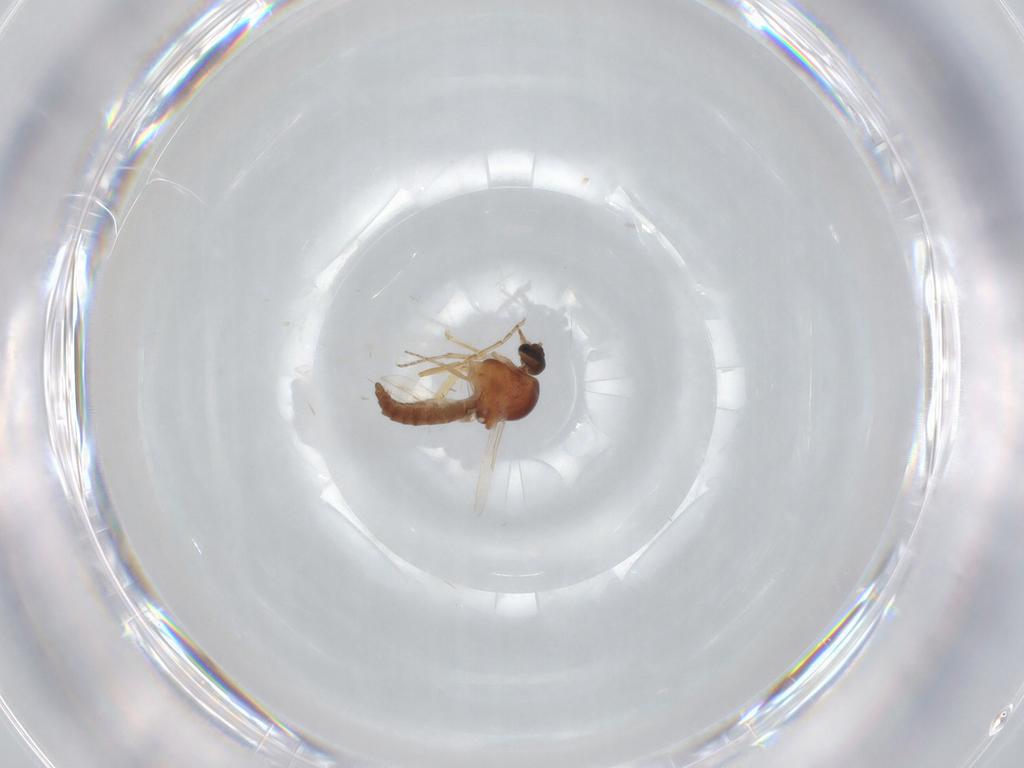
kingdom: Animalia
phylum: Arthropoda
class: Insecta
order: Diptera
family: Ceratopogonidae
